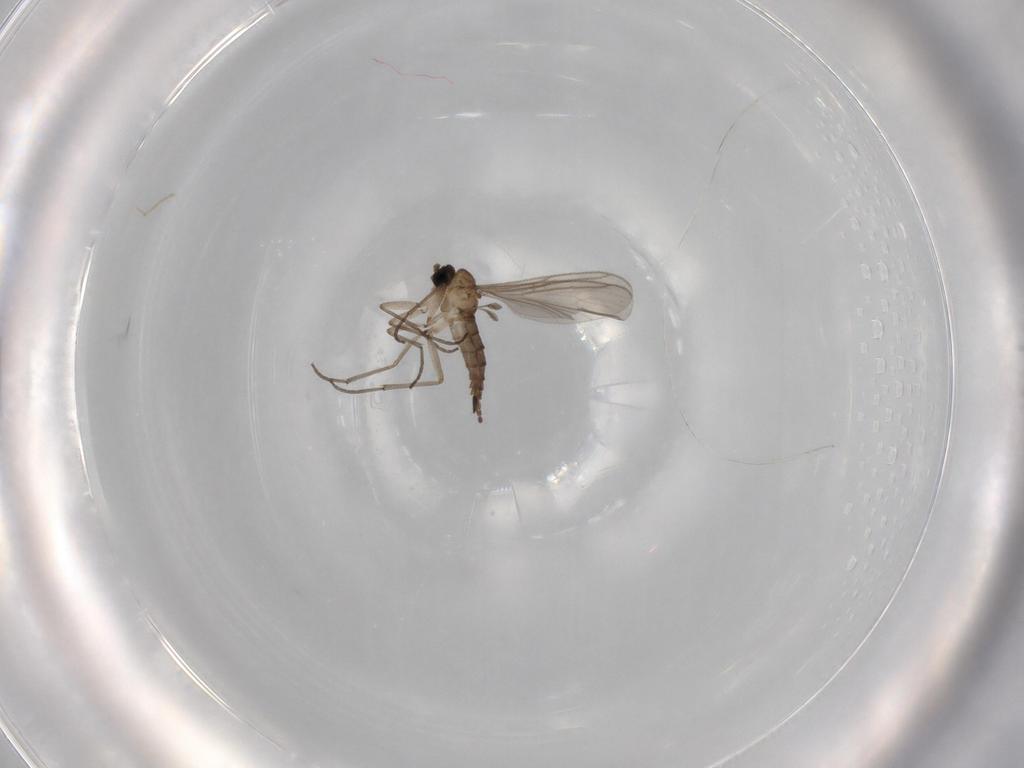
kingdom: Animalia
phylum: Arthropoda
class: Insecta
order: Diptera
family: Sciaridae
